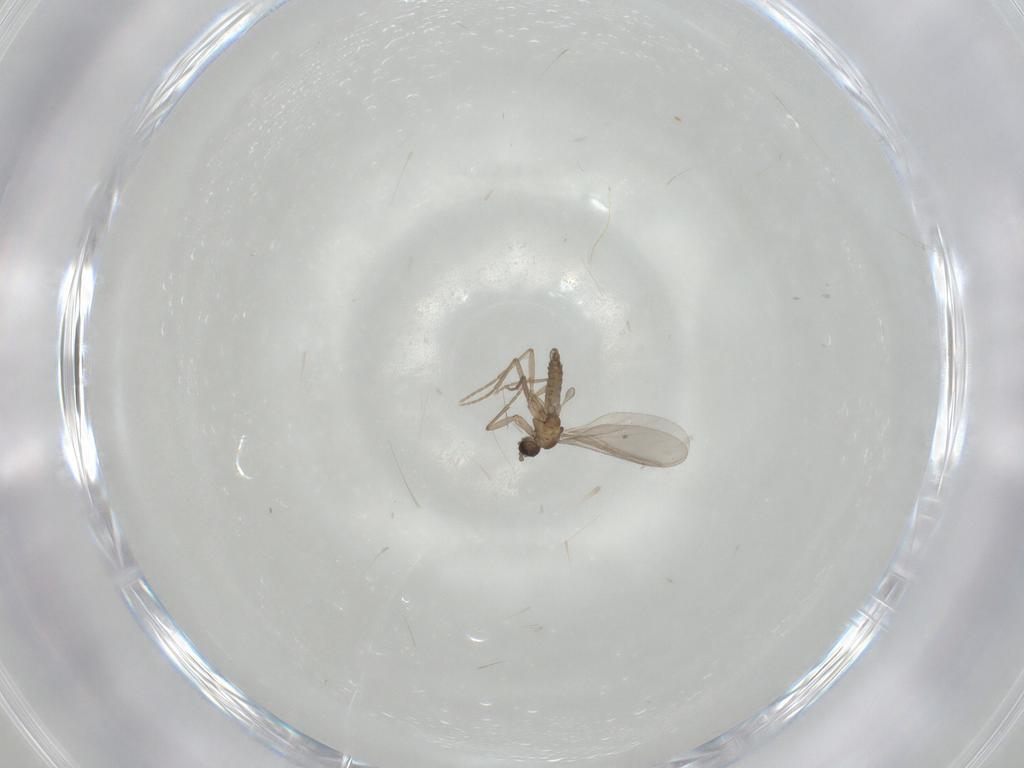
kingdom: Animalia
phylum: Arthropoda
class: Insecta
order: Diptera
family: Sciaridae
